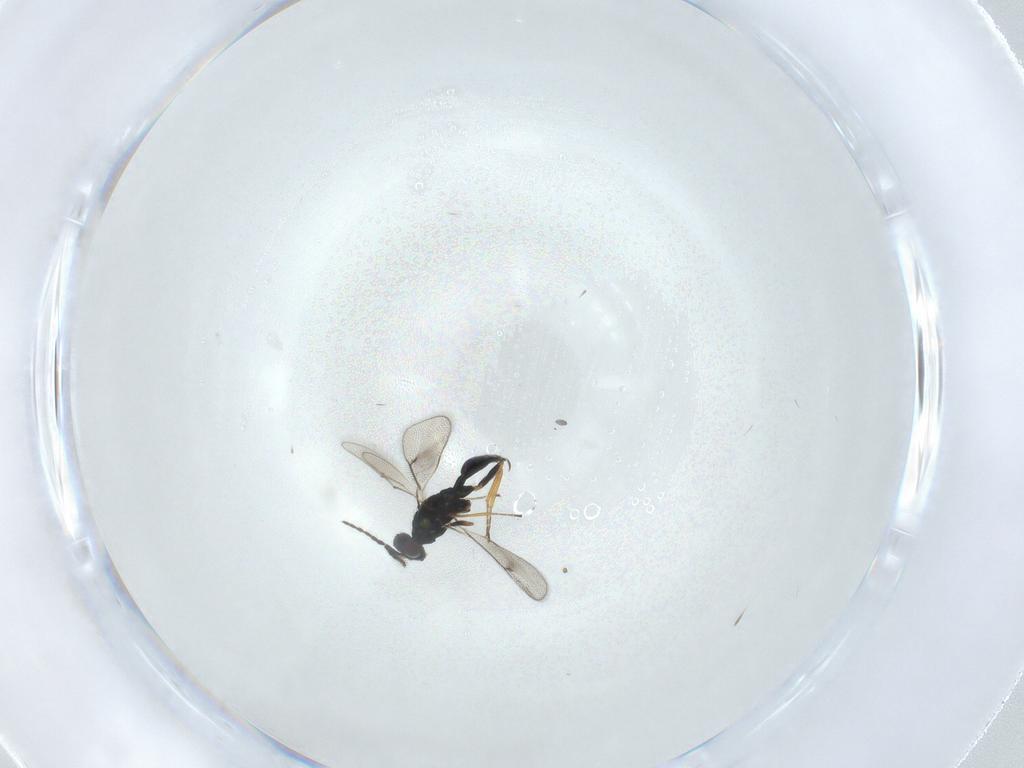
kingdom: Animalia
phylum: Arthropoda
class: Insecta
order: Hymenoptera
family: Eulophidae
